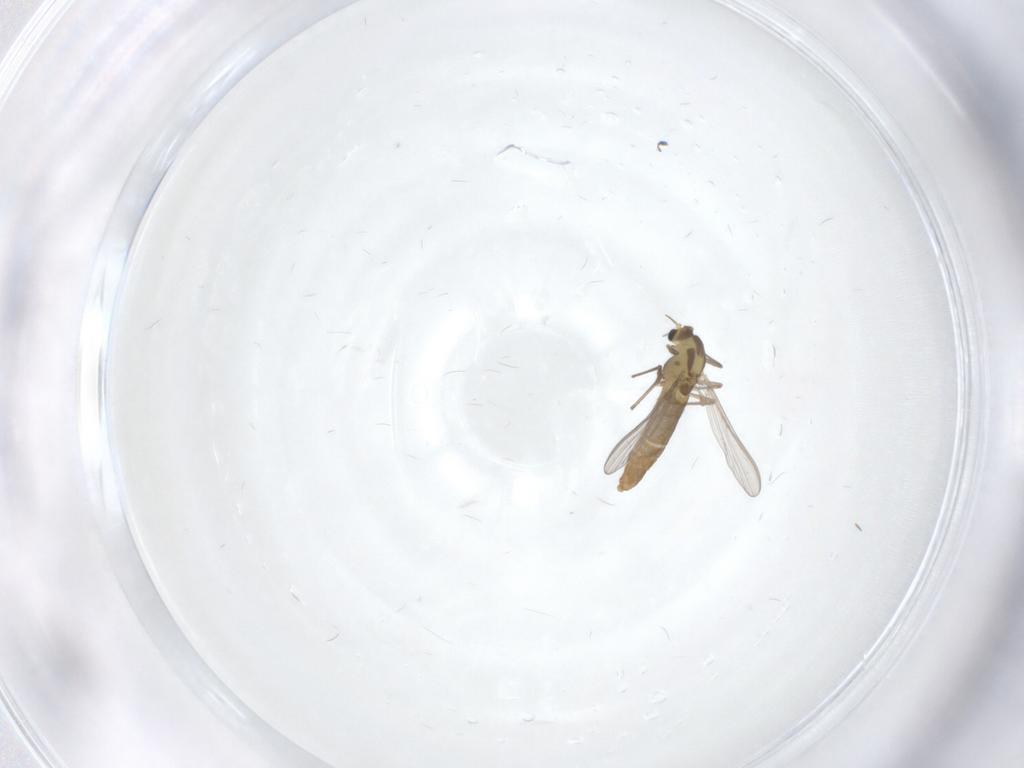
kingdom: Animalia
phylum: Arthropoda
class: Insecta
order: Diptera
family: Chironomidae
